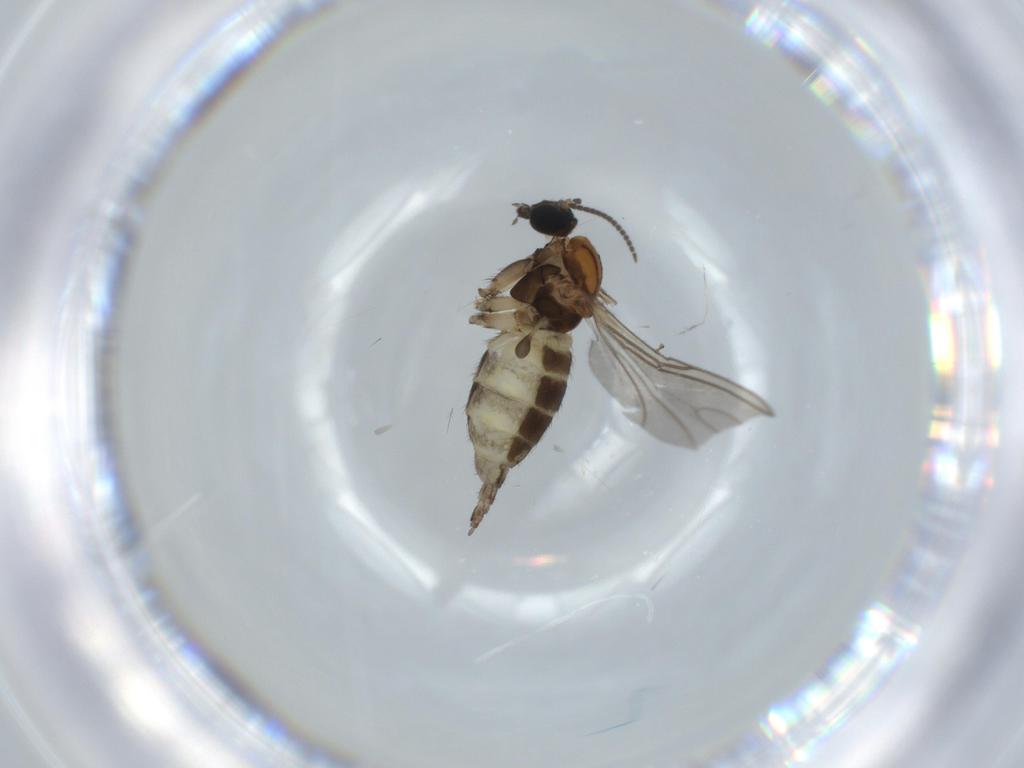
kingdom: Animalia
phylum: Arthropoda
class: Insecta
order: Diptera
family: Sciaridae
